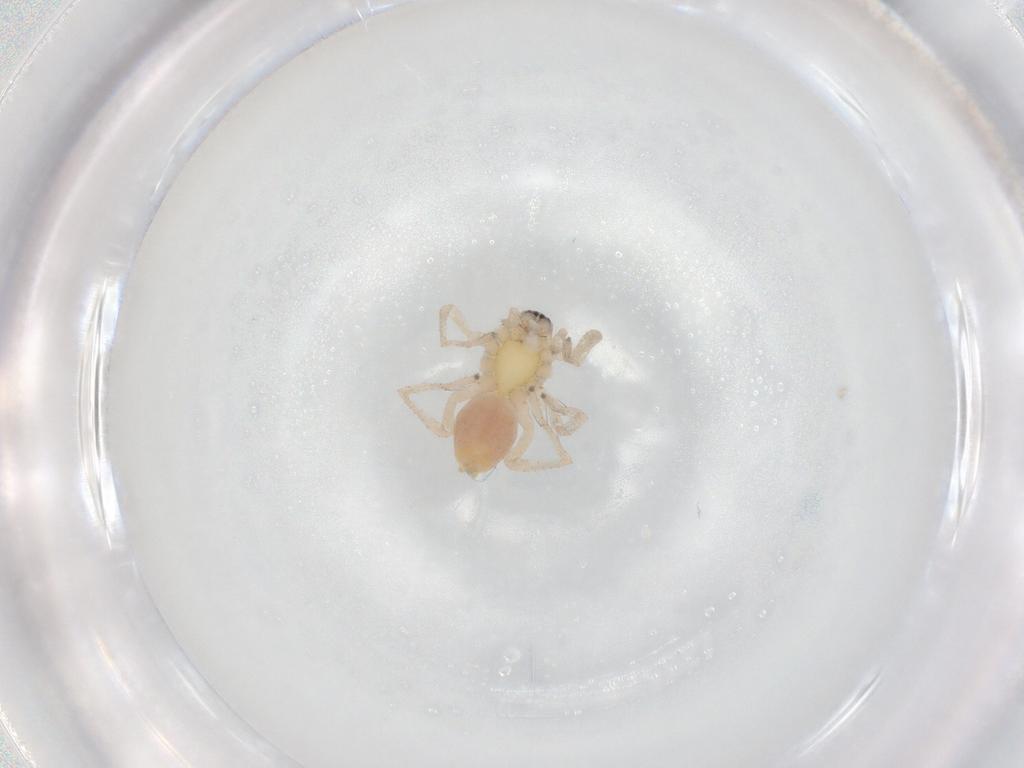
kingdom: Animalia
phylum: Arthropoda
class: Arachnida
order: Araneae
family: Clubionidae
